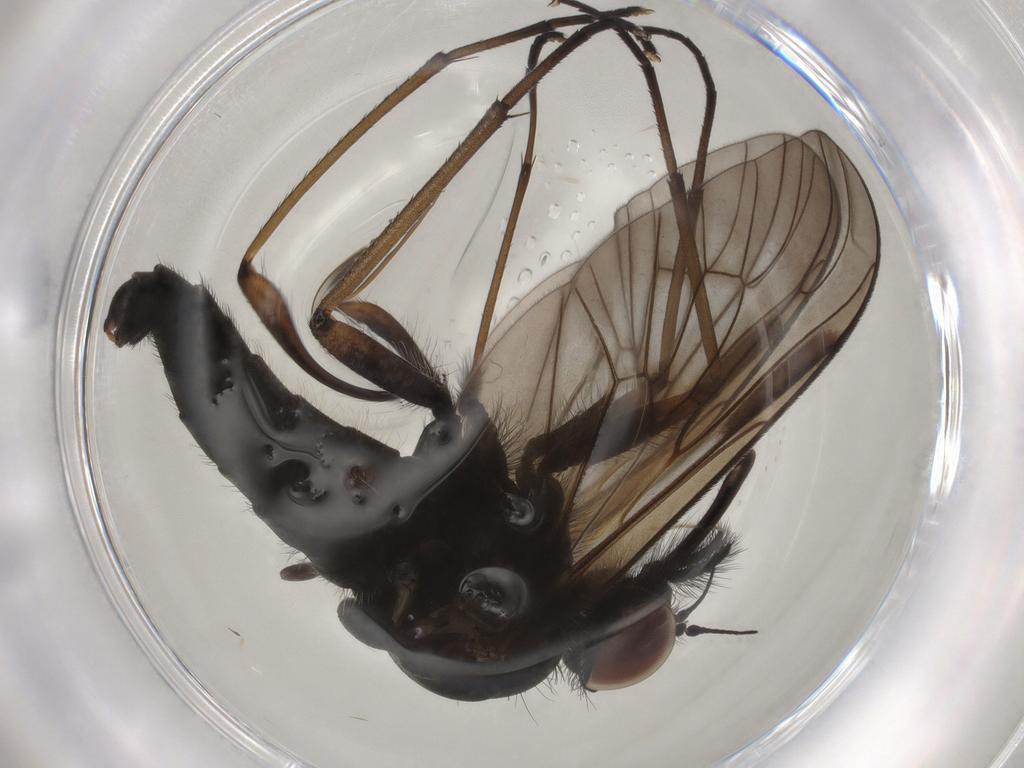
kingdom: Animalia
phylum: Arthropoda
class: Insecta
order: Diptera
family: Rhagionidae
